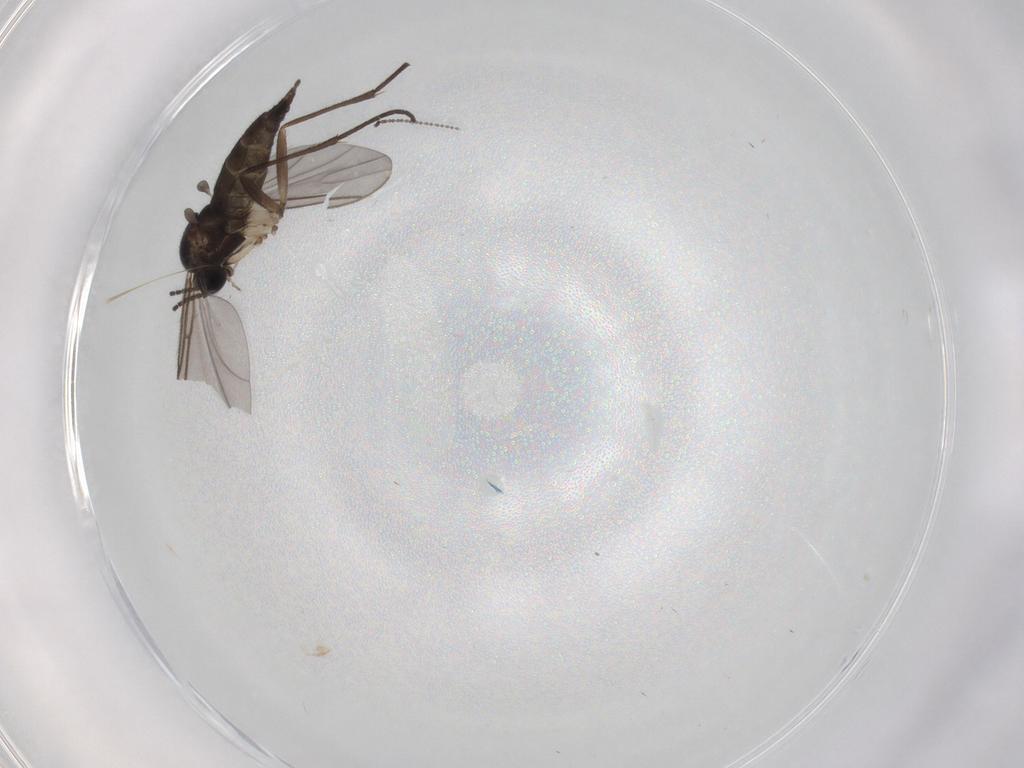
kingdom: Animalia
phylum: Arthropoda
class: Insecta
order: Diptera
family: Sciaridae
